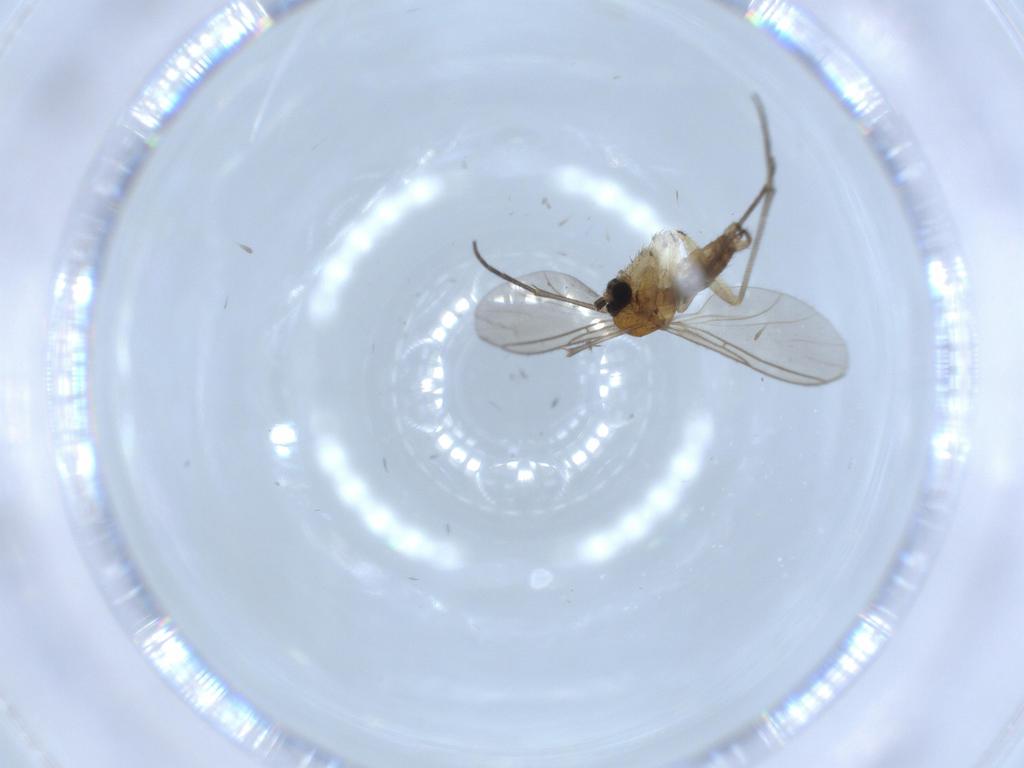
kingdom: Animalia
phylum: Arthropoda
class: Insecta
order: Diptera
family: Sciaridae
